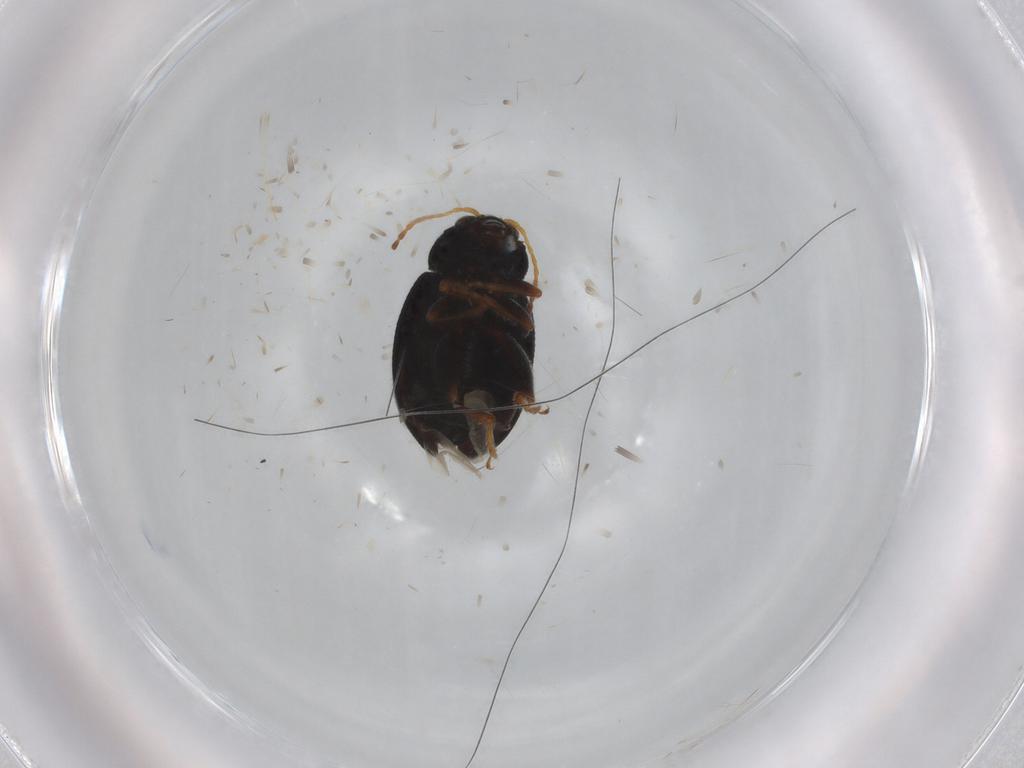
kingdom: Animalia
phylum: Arthropoda
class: Insecta
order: Coleoptera
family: Chrysomelidae
